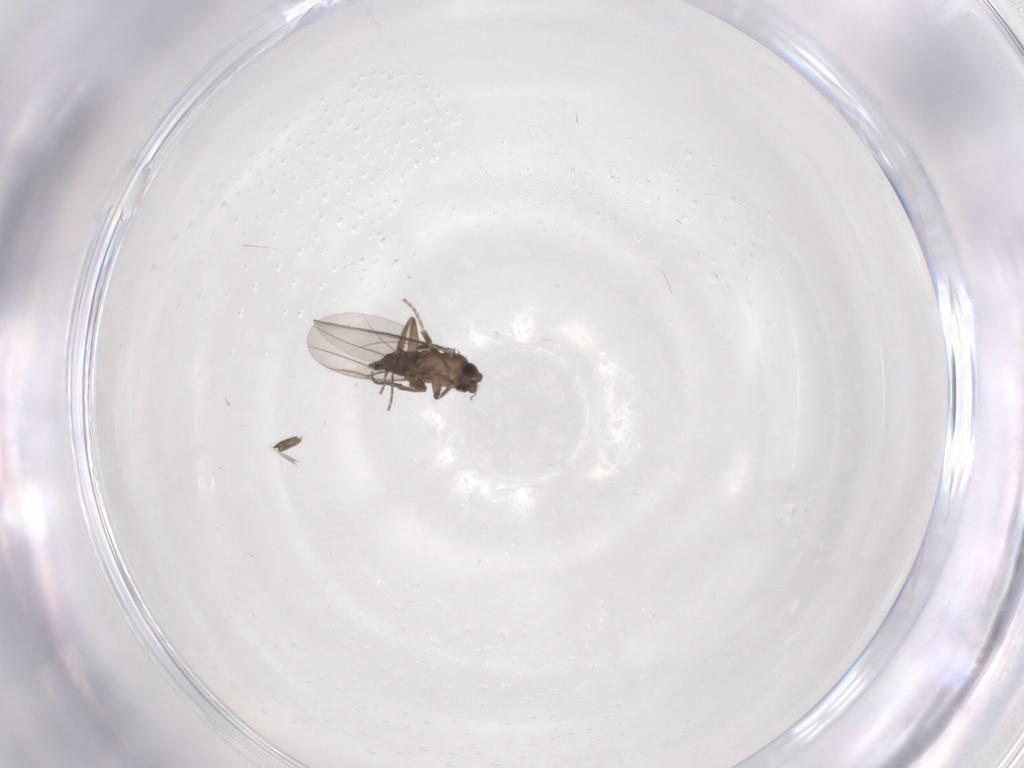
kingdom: Animalia
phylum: Arthropoda
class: Insecta
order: Diptera
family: Phoridae
